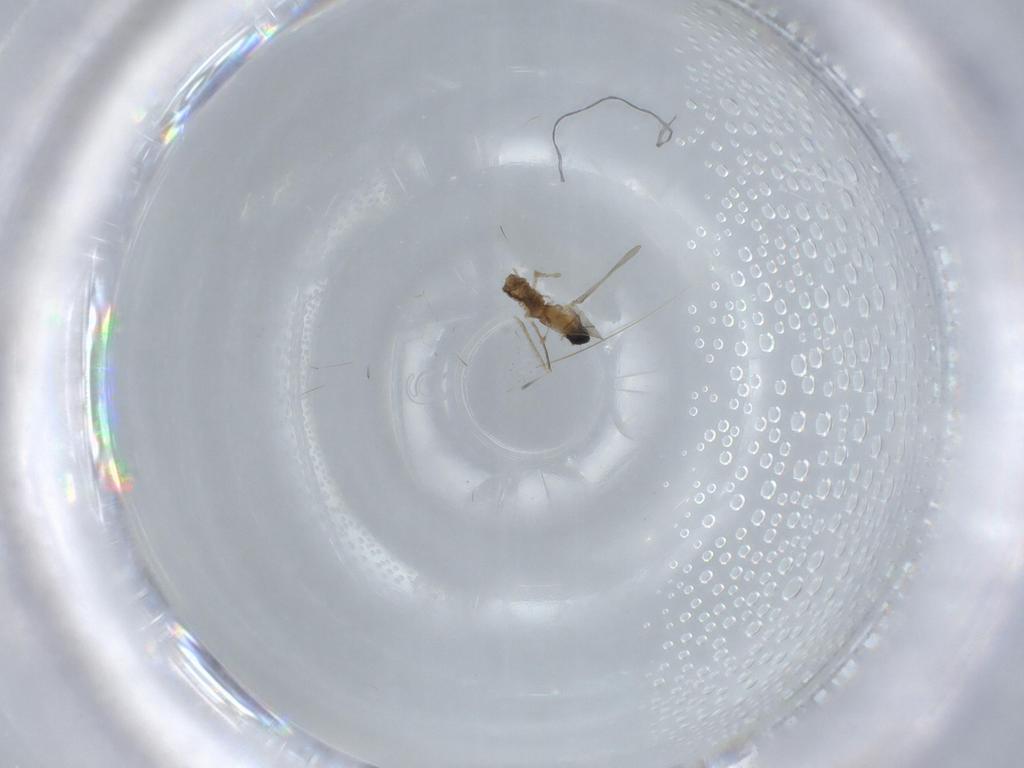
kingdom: Animalia
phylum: Arthropoda
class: Insecta
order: Diptera
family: Cecidomyiidae
